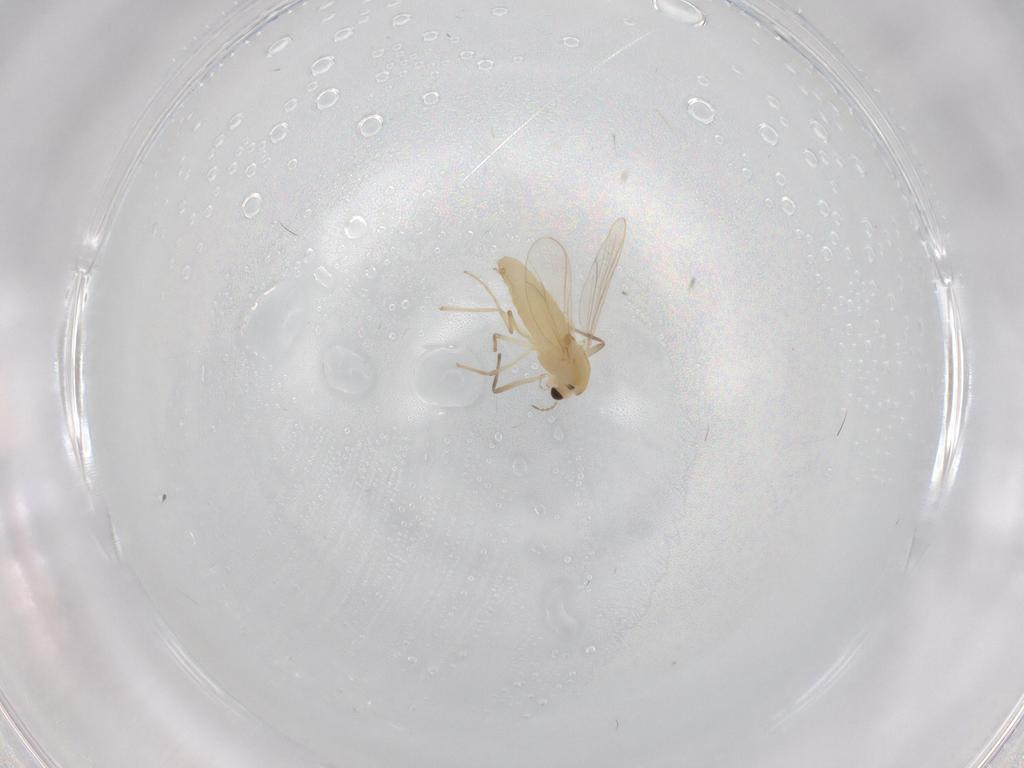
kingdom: Animalia
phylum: Arthropoda
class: Insecta
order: Diptera
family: Chironomidae
